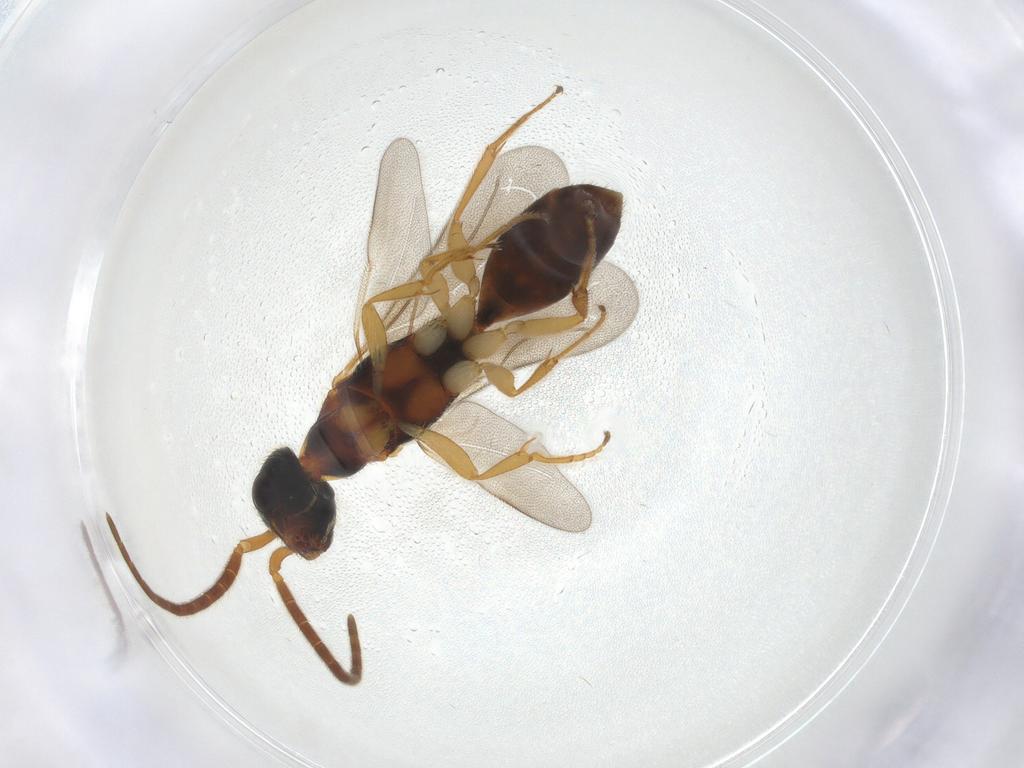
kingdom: Animalia
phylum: Arthropoda
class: Insecta
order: Hymenoptera
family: Bethylidae
